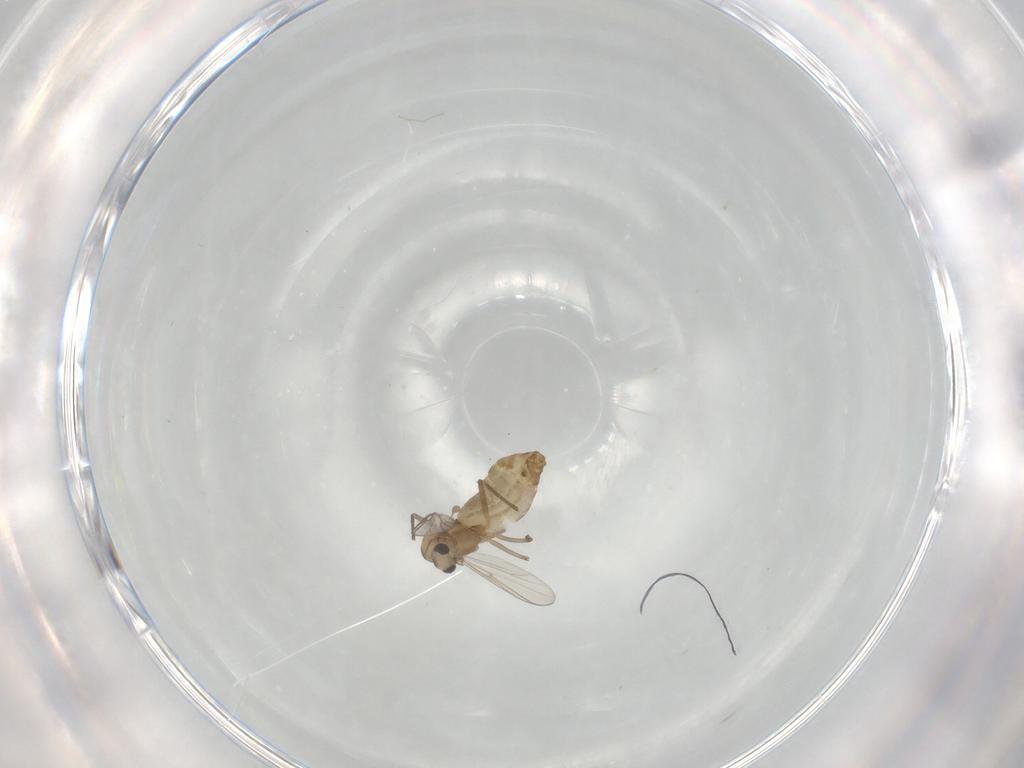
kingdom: Animalia
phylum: Arthropoda
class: Insecta
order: Diptera
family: Chironomidae
